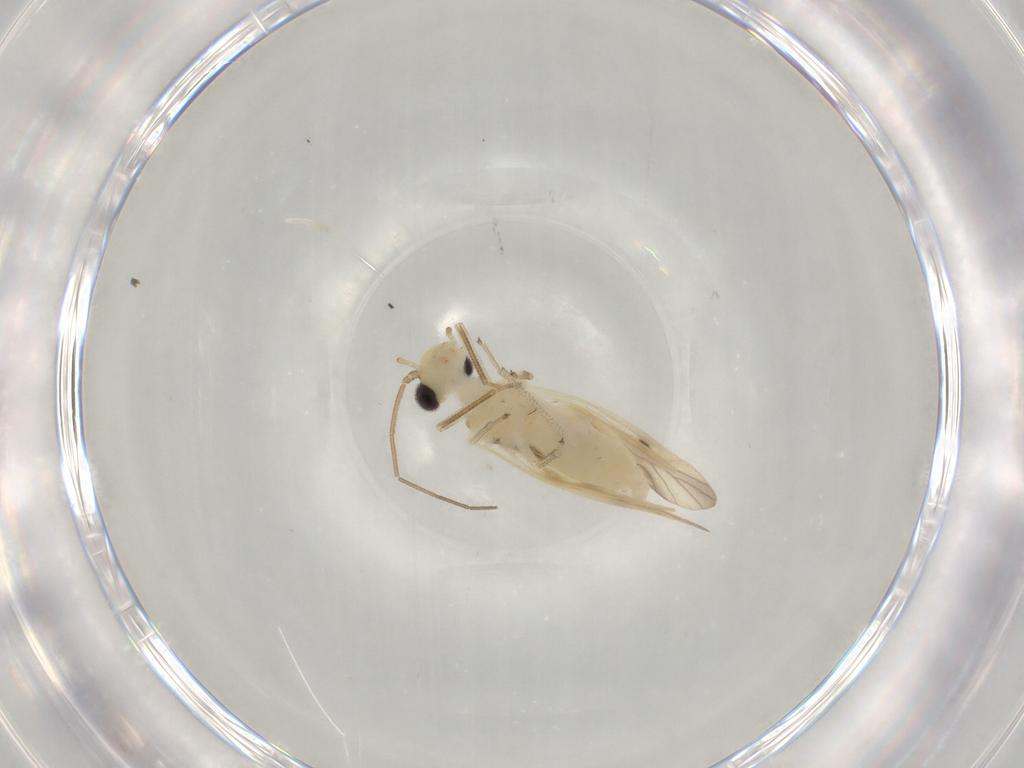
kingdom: Animalia
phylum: Arthropoda
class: Insecta
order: Psocodea
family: Caeciliusidae
